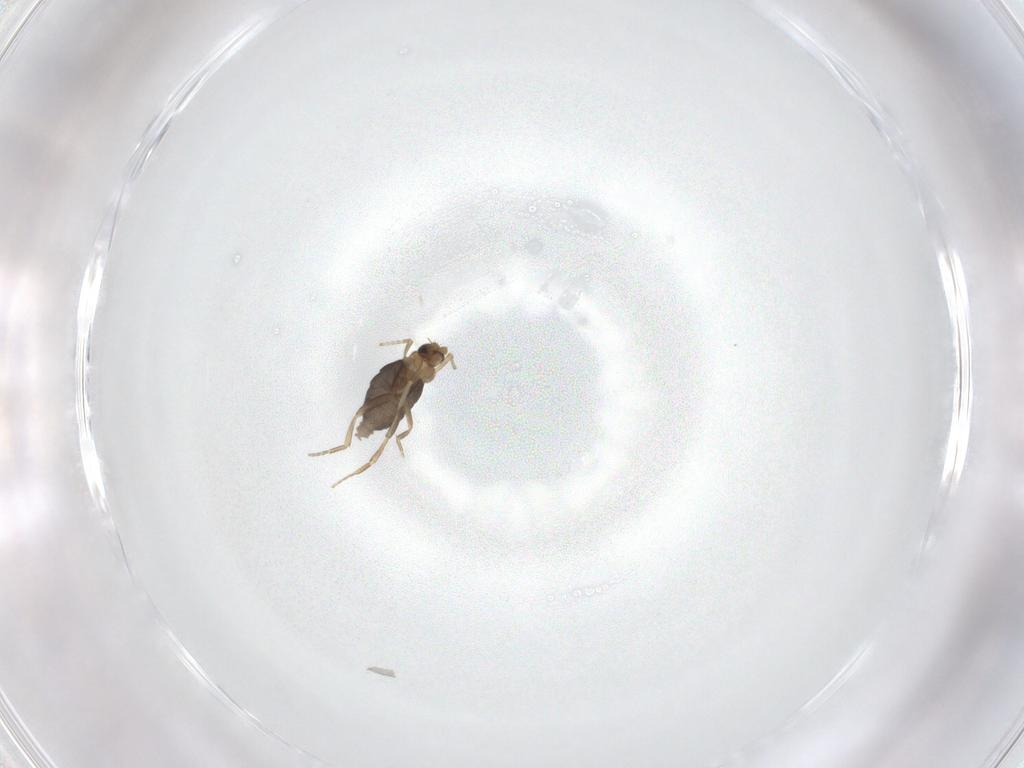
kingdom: Animalia
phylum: Arthropoda
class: Insecta
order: Diptera
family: Phoridae
